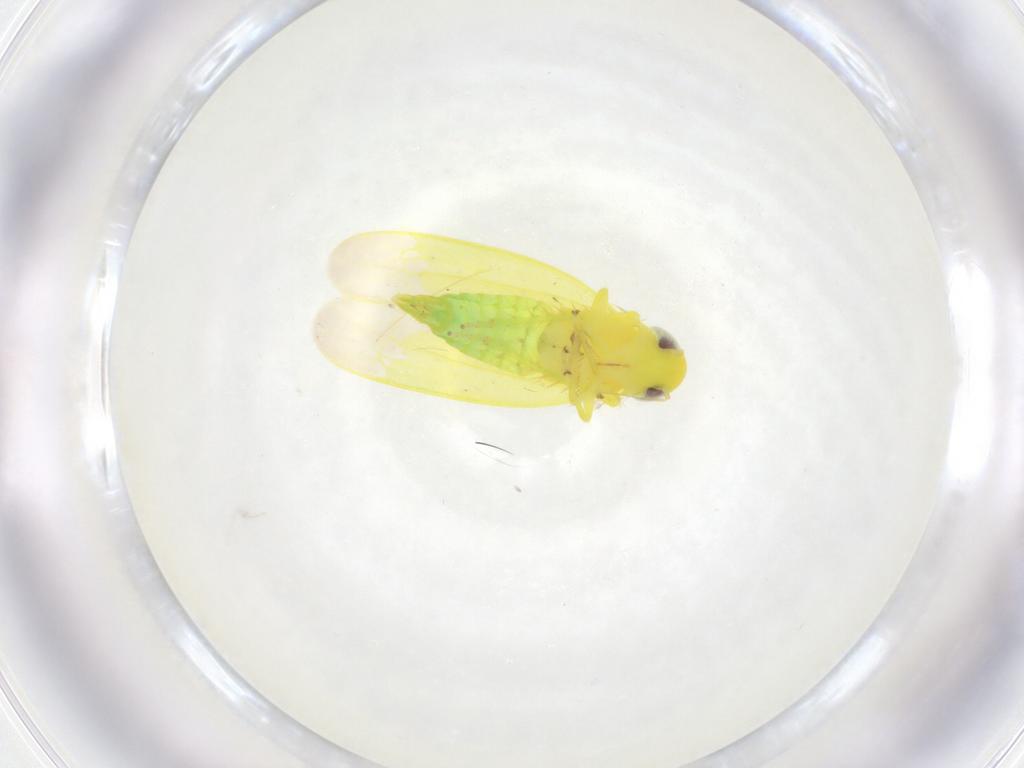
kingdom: Animalia
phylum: Arthropoda
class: Insecta
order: Hemiptera
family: Cicadellidae
